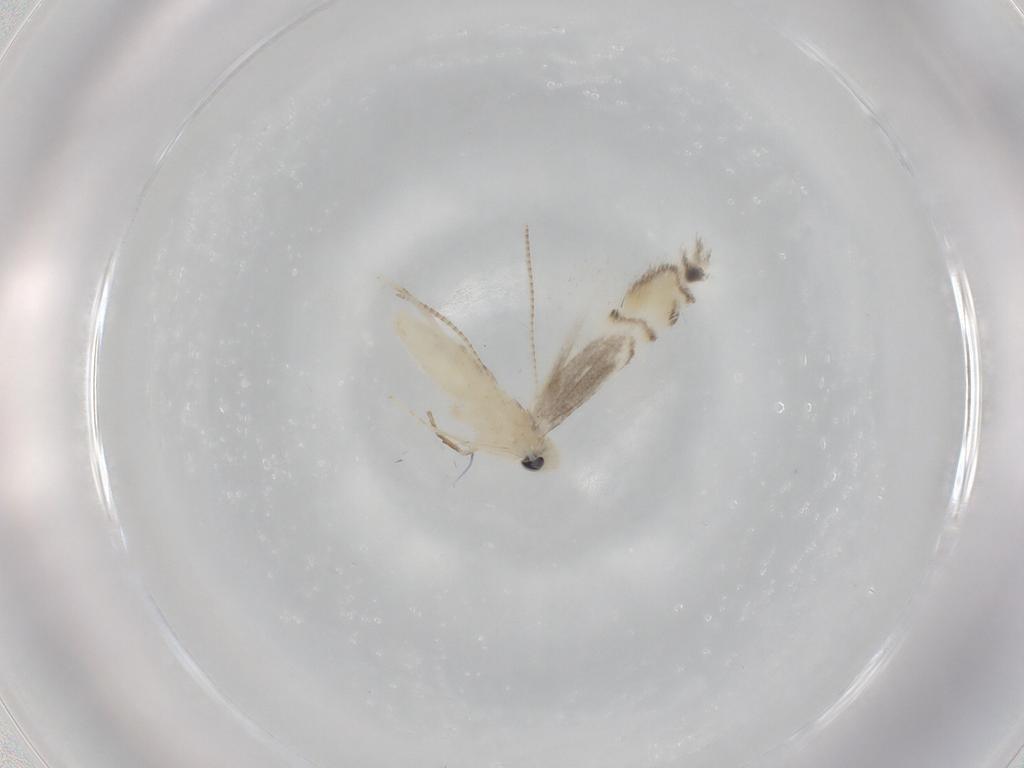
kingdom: Animalia
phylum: Arthropoda
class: Insecta
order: Lepidoptera
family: Gracillariidae
